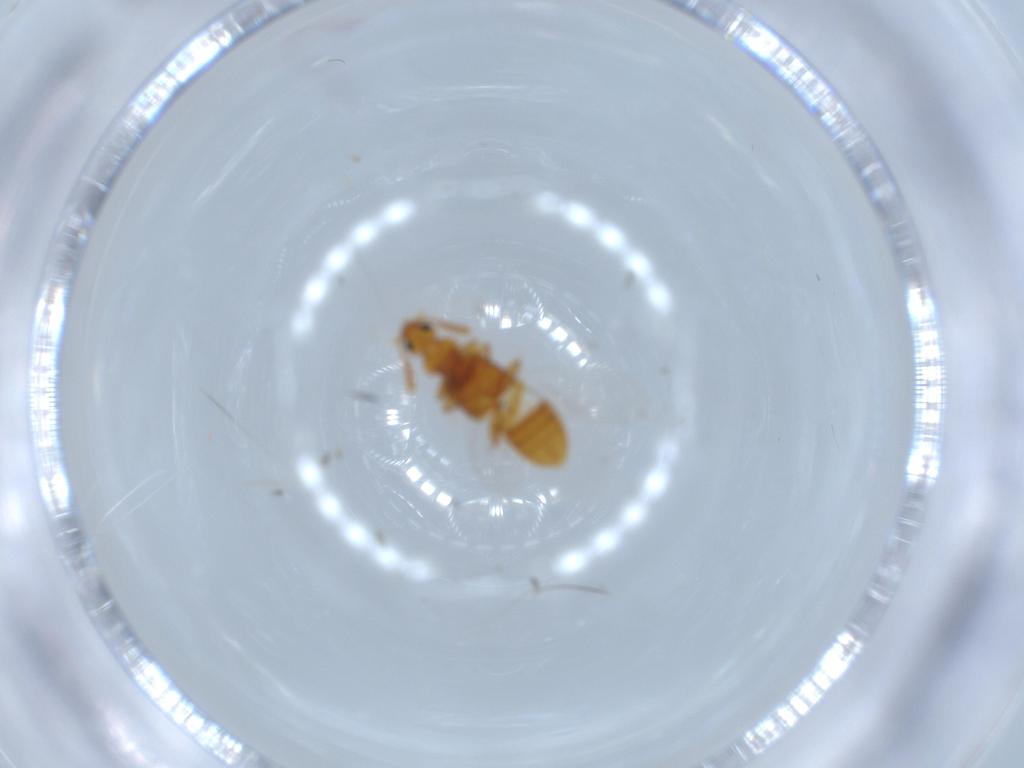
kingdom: Animalia
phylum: Arthropoda
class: Insecta
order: Coleoptera
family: Staphylinidae
